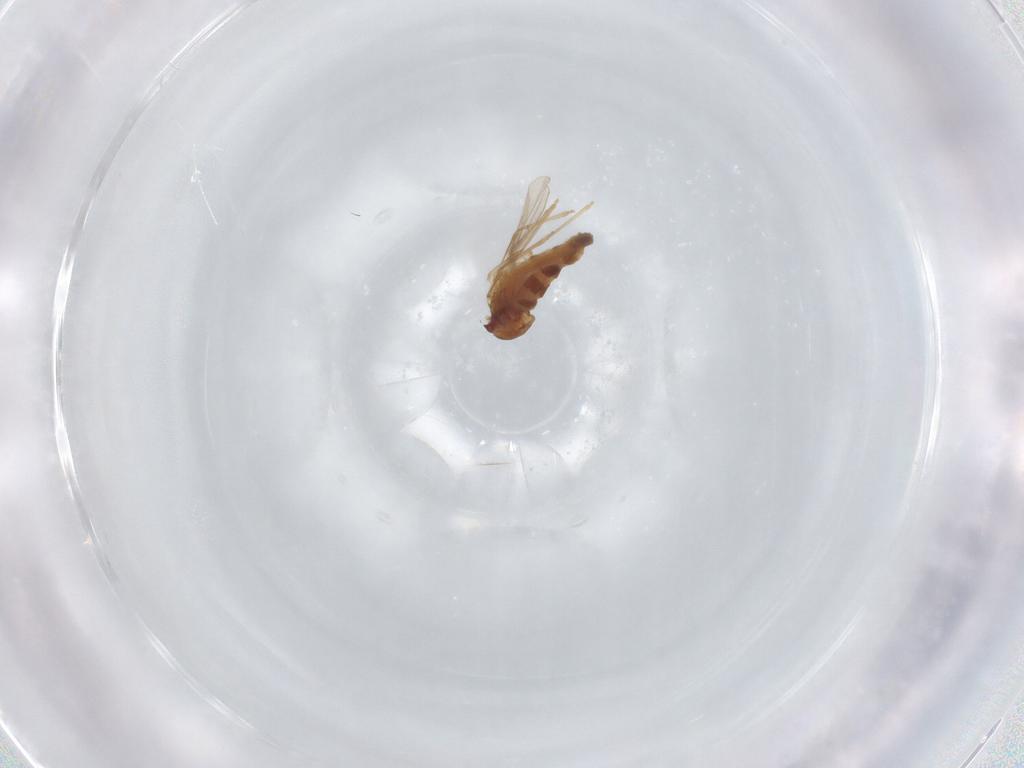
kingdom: Animalia
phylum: Arthropoda
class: Insecta
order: Diptera
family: Cecidomyiidae
